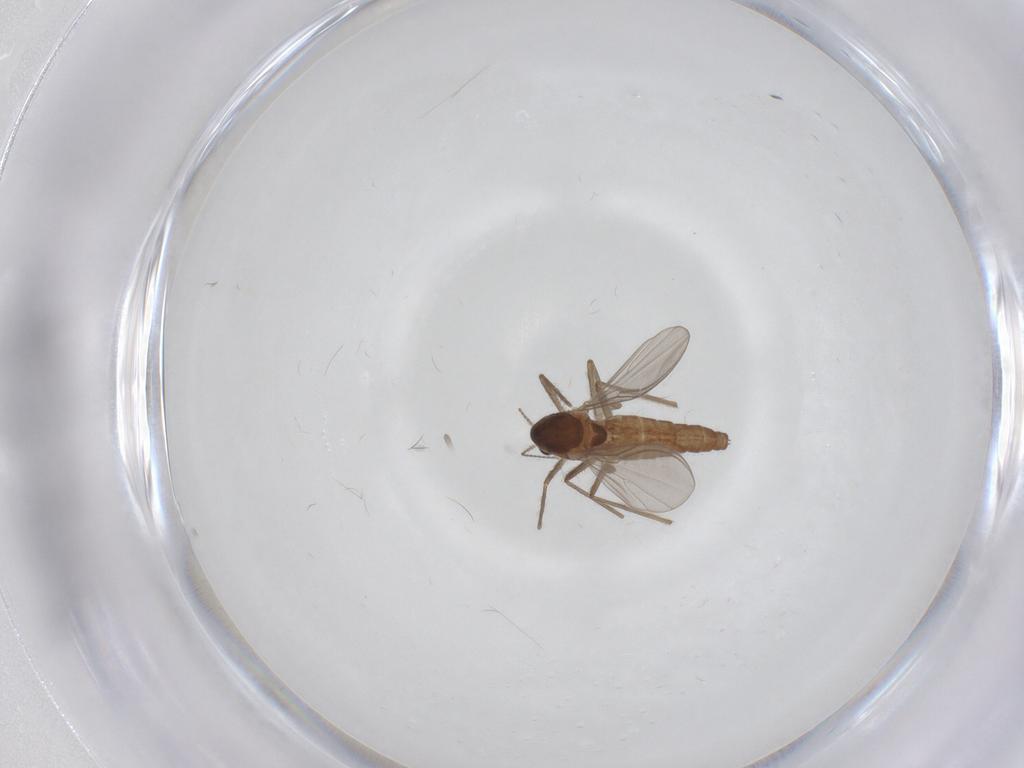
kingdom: Animalia
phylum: Arthropoda
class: Insecta
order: Diptera
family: Chironomidae
